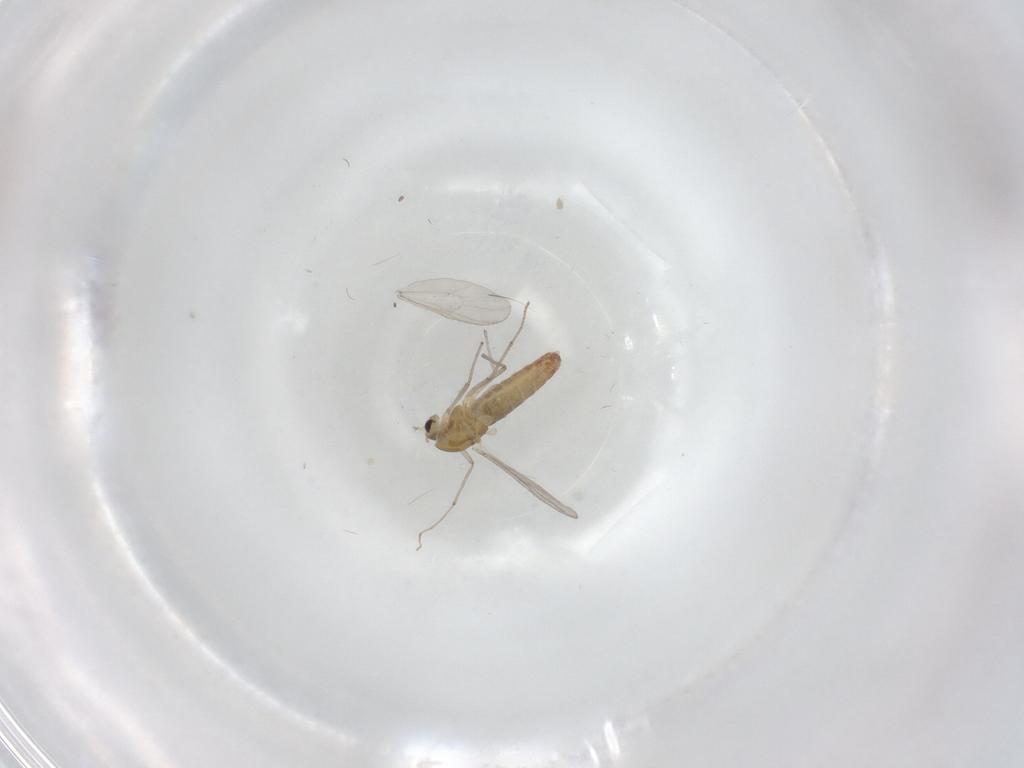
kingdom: Animalia
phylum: Arthropoda
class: Insecta
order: Diptera
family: Chironomidae
